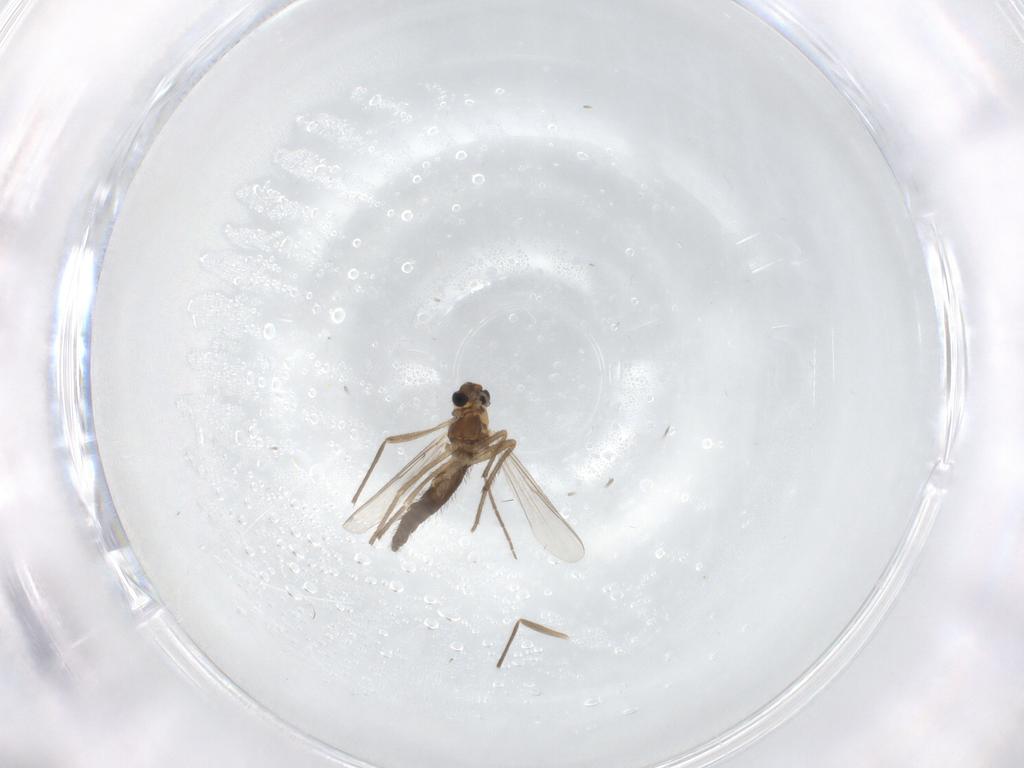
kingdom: Animalia
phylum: Arthropoda
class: Insecta
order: Diptera
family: Chironomidae
